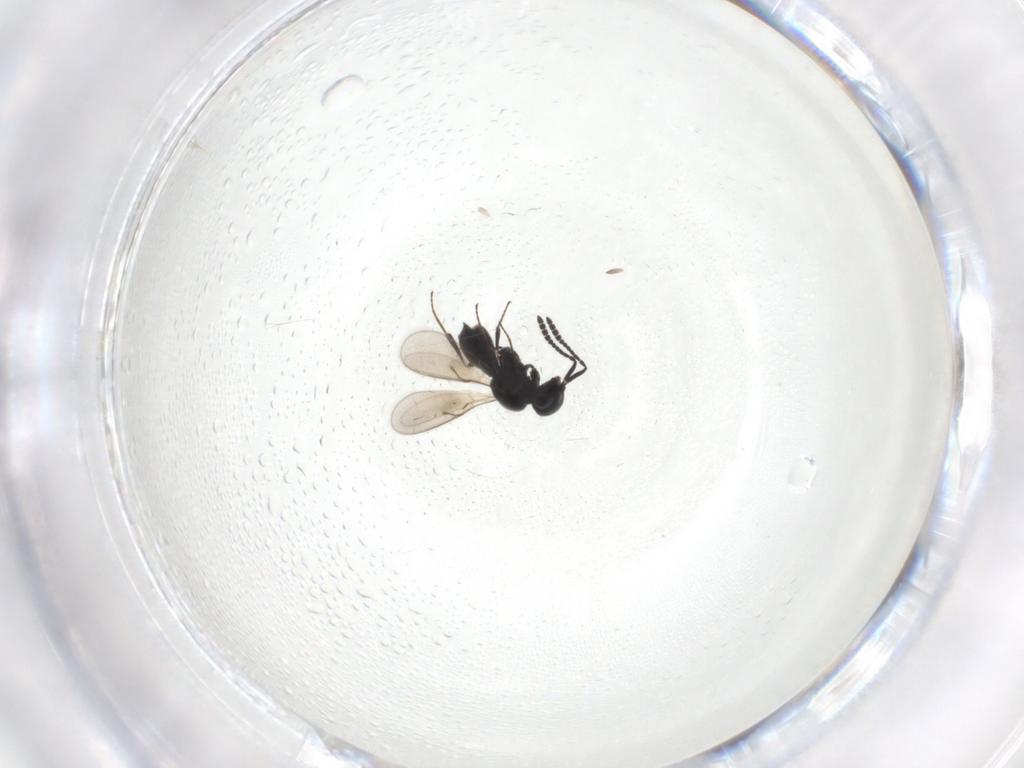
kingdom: Animalia
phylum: Arthropoda
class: Insecta
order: Hymenoptera
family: Scelionidae
